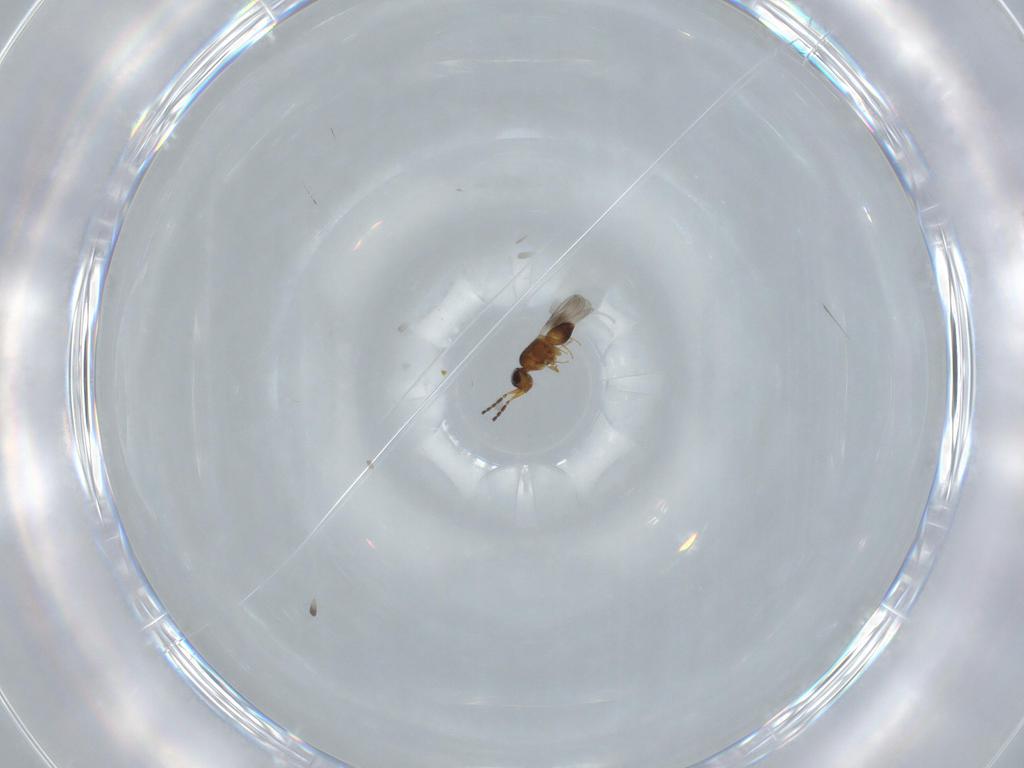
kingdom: Animalia
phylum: Arthropoda
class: Insecta
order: Hymenoptera
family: Ceraphronidae
